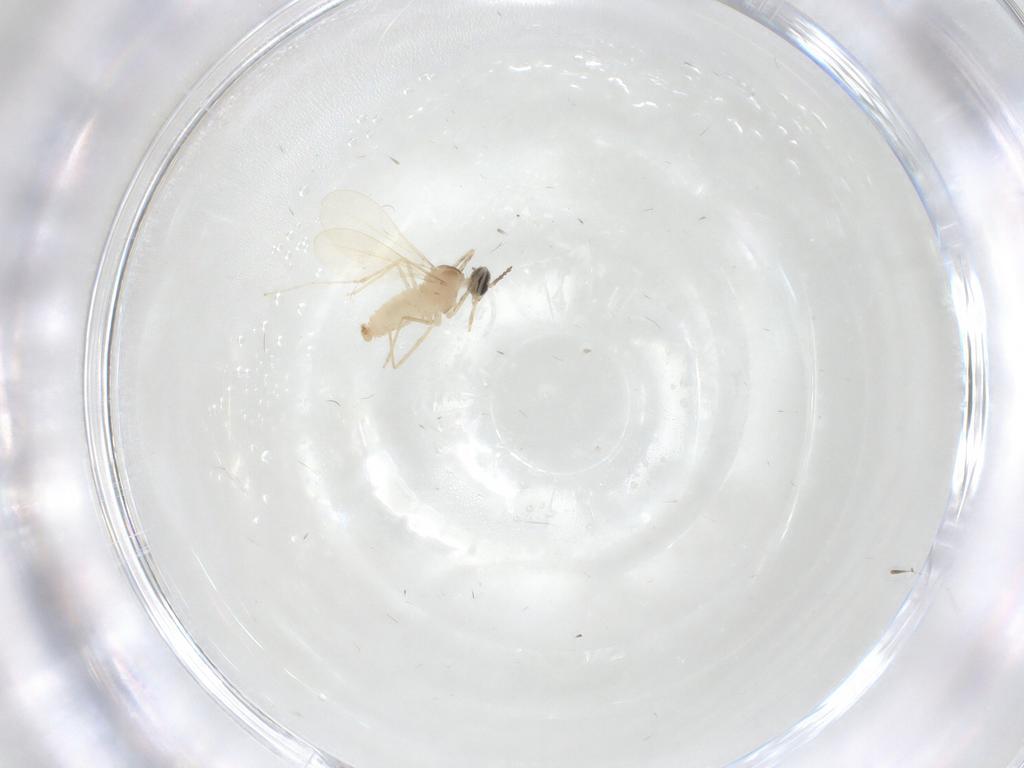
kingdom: Animalia
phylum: Arthropoda
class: Insecta
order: Diptera
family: Cecidomyiidae
